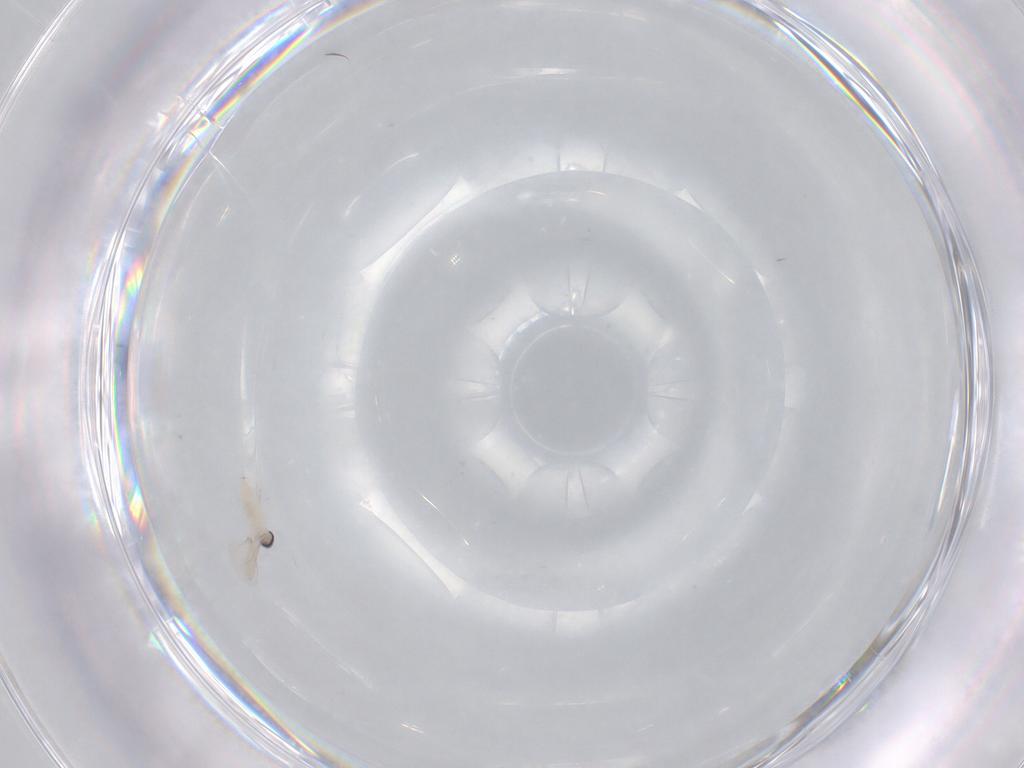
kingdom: Animalia
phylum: Arthropoda
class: Insecta
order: Diptera
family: Cecidomyiidae
